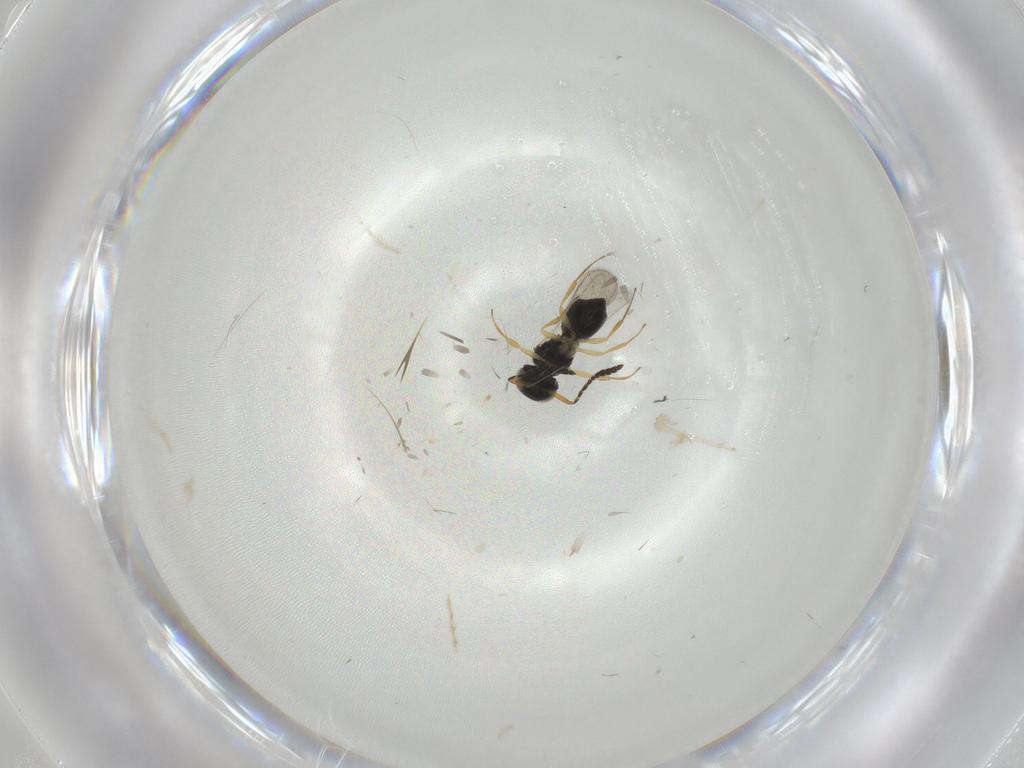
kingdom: Animalia
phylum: Arthropoda
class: Insecta
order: Hymenoptera
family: Scelionidae
